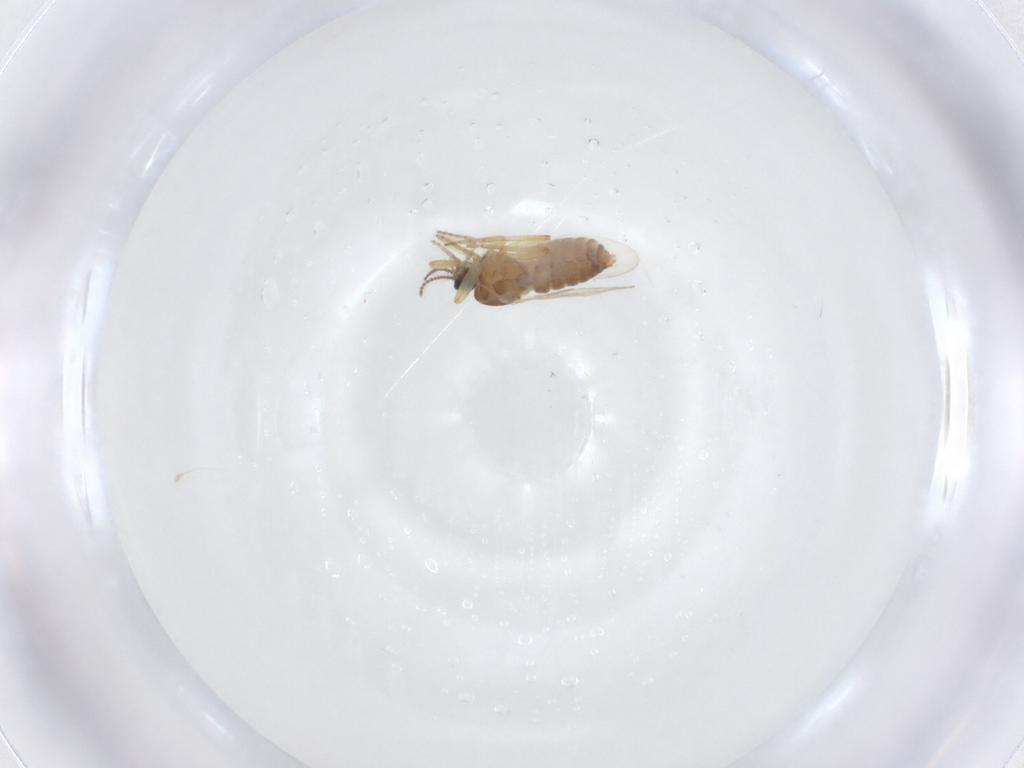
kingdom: Animalia
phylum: Arthropoda
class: Insecta
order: Diptera
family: Ceratopogonidae
